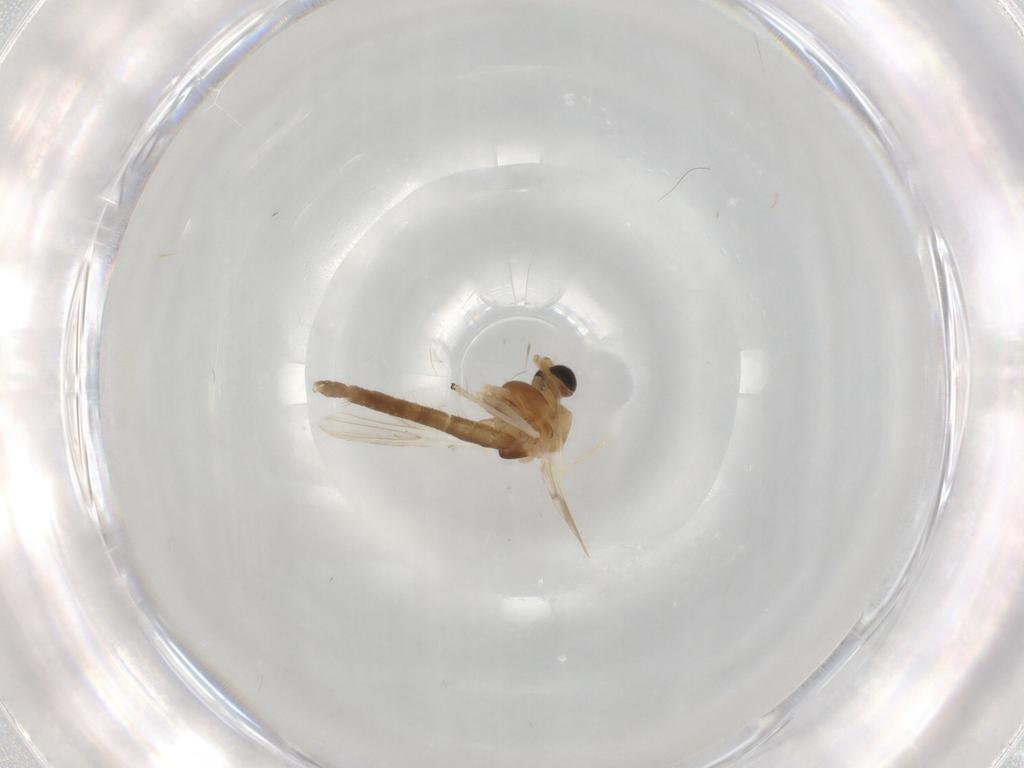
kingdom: Animalia
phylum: Arthropoda
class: Insecta
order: Diptera
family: Chironomidae
